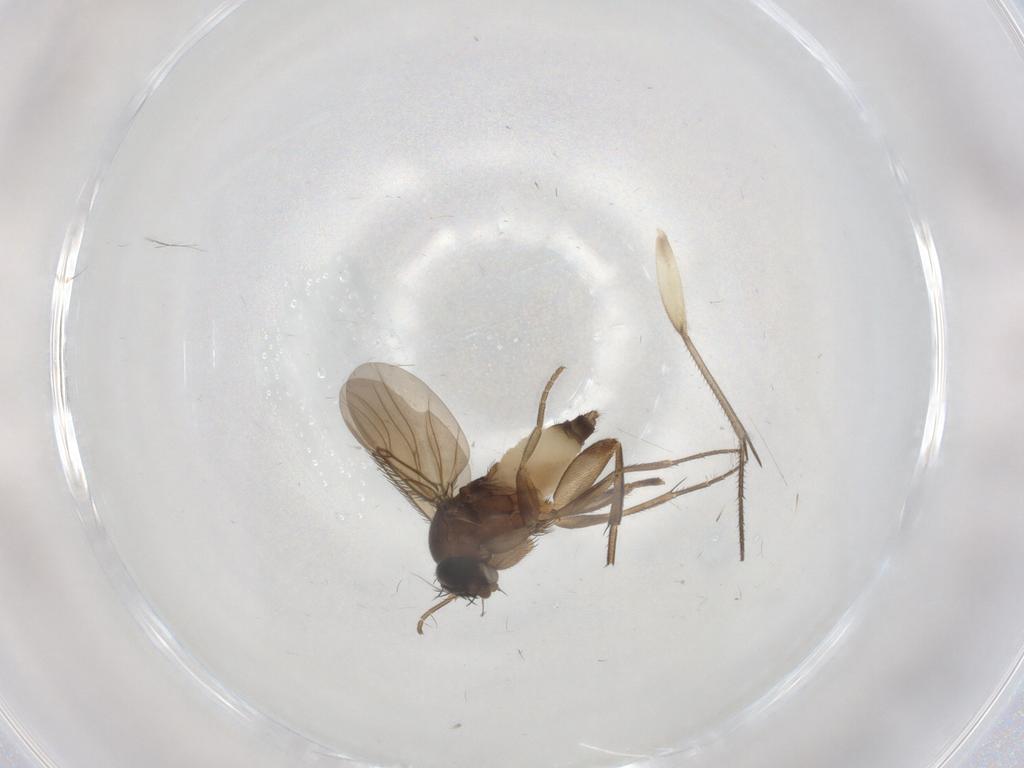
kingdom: Animalia
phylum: Arthropoda
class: Insecta
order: Diptera
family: Phoridae
